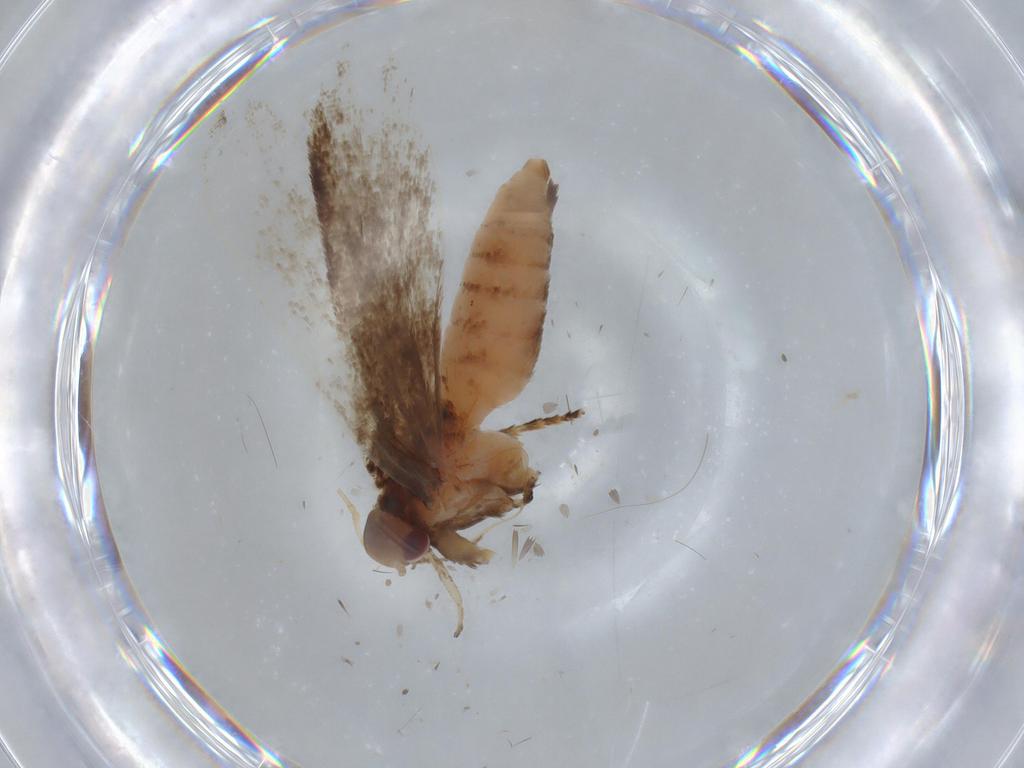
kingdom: Animalia
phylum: Arthropoda
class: Insecta
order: Lepidoptera
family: Gelechiidae
